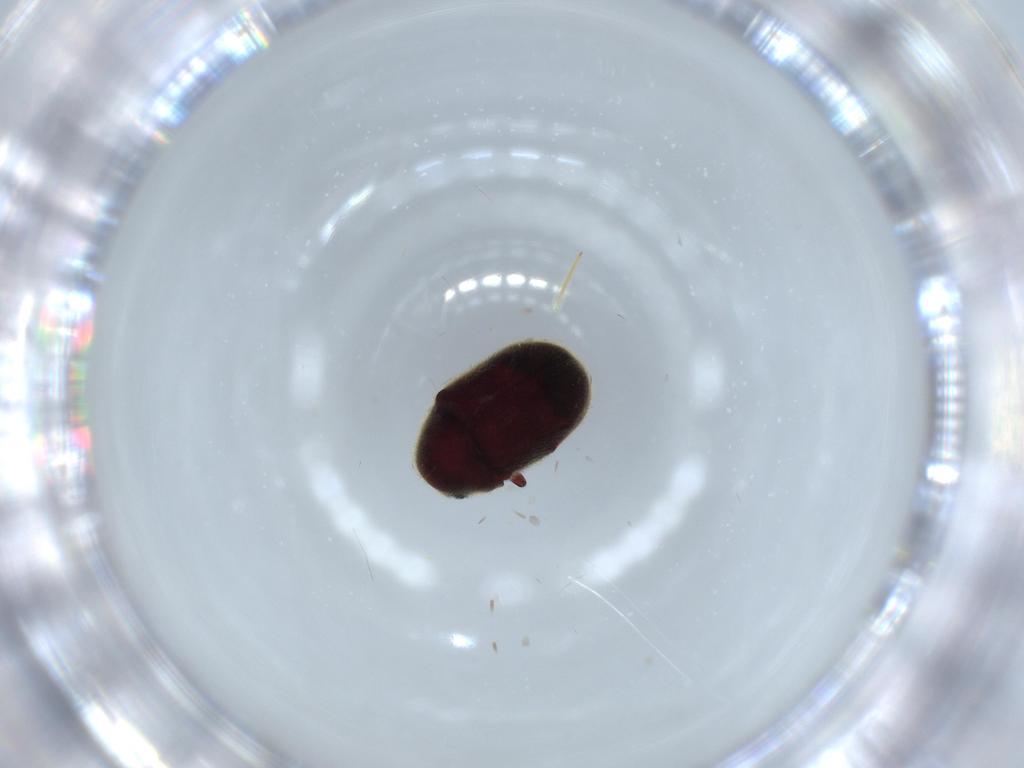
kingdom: Animalia
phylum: Arthropoda
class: Insecta
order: Coleoptera
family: Ptinidae
